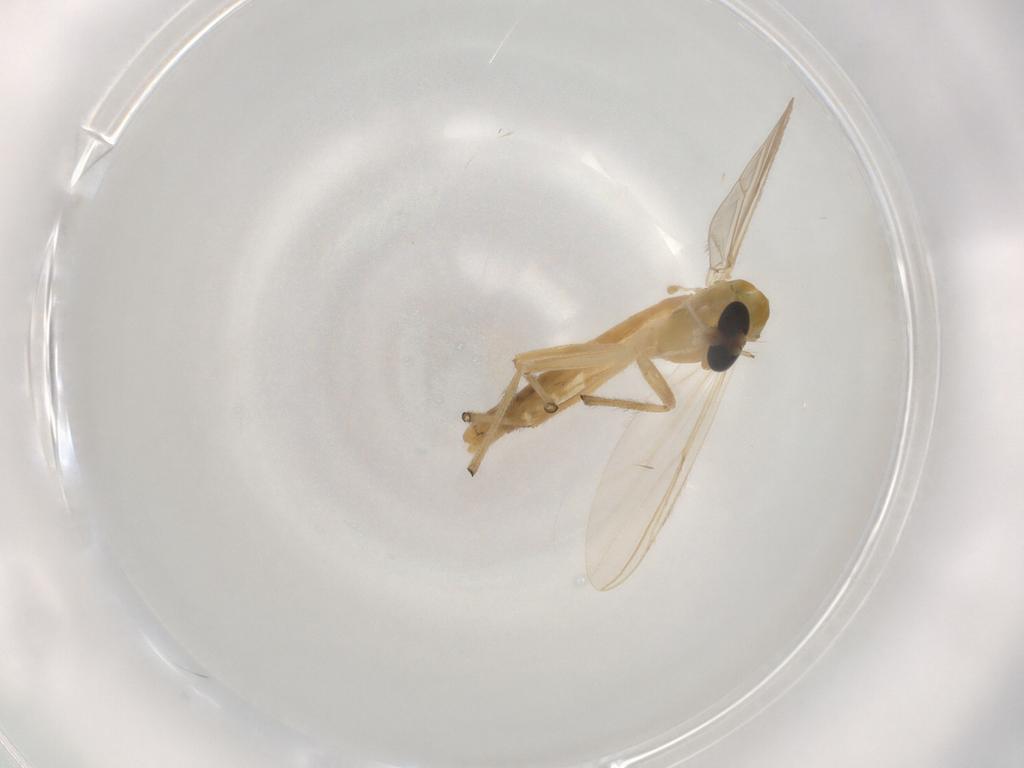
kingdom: Animalia
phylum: Arthropoda
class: Insecta
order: Diptera
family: Chironomidae
